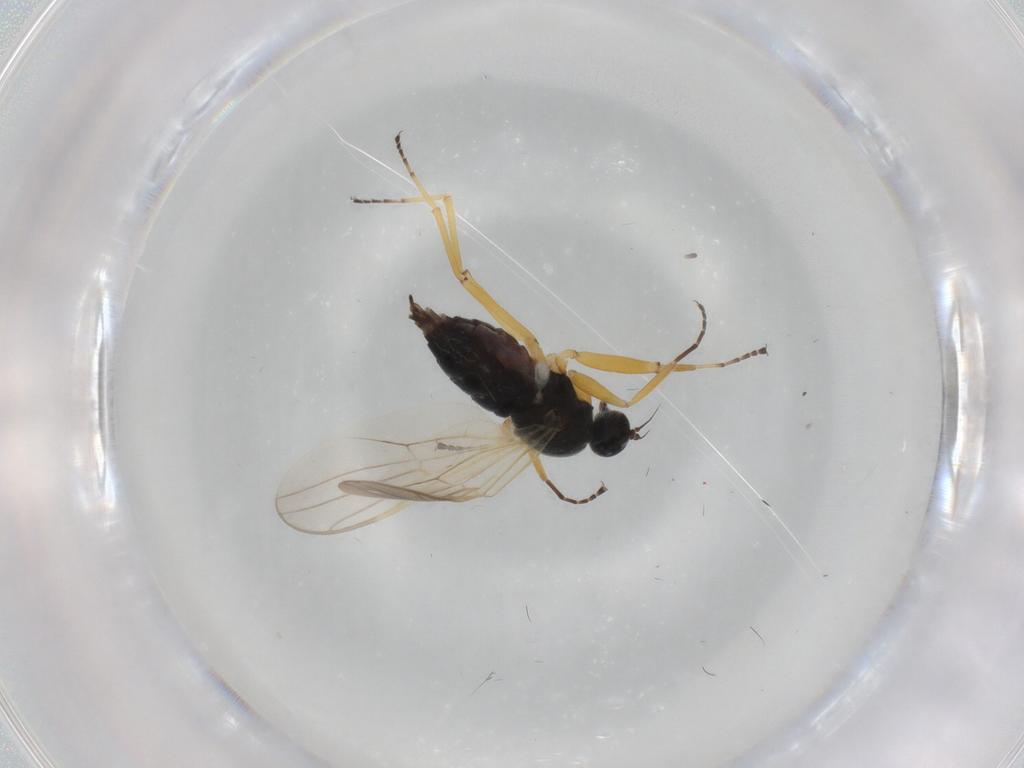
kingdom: Animalia
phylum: Arthropoda
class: Insecta
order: Diptera
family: Hybotidae
